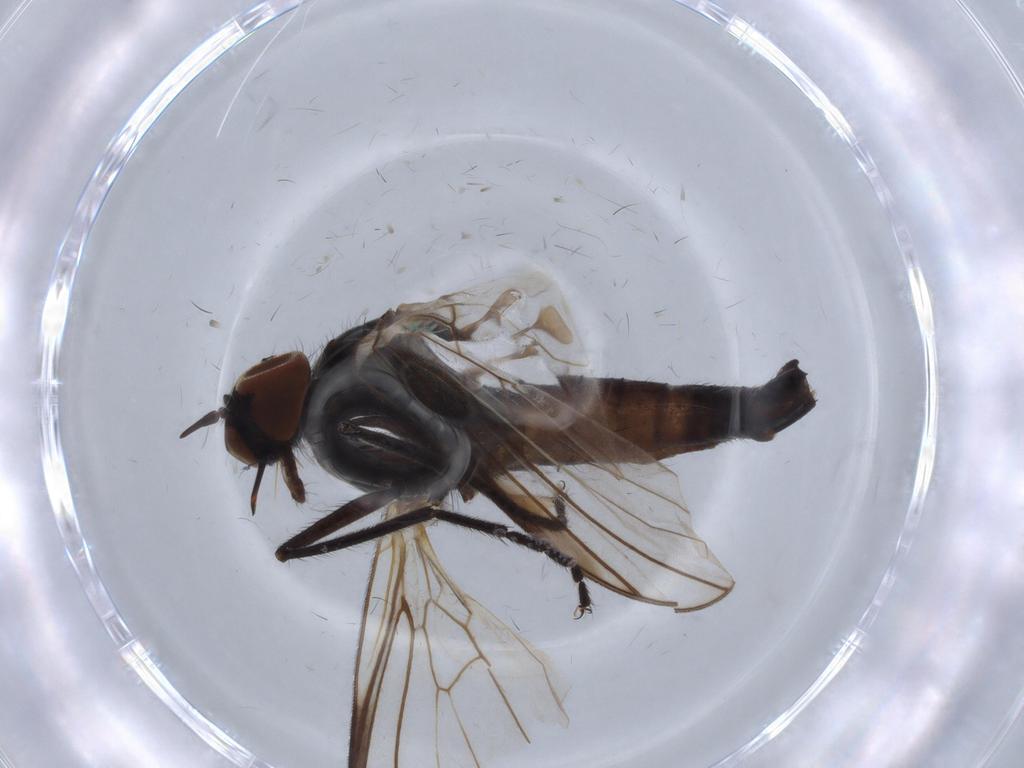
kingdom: Animalia
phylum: Arthropoda
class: Insecta
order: Diptera
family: Empididae
